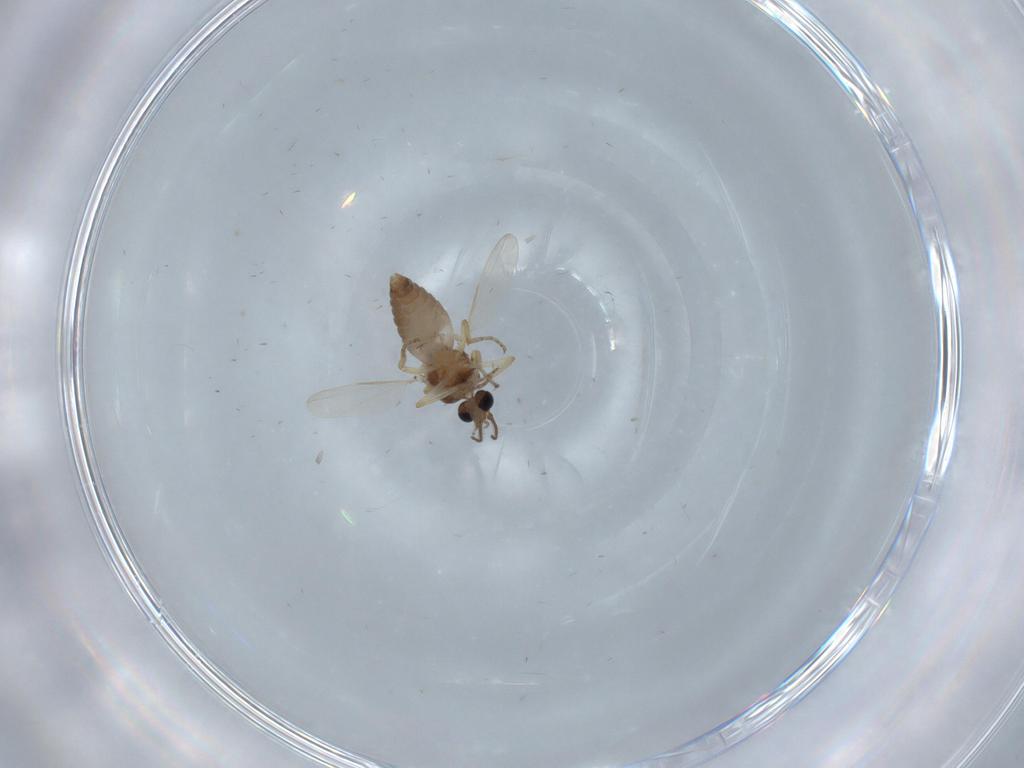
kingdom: Animalia
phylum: Arthropoda
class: Insecta
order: Diptera
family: Ceratopogonidae
